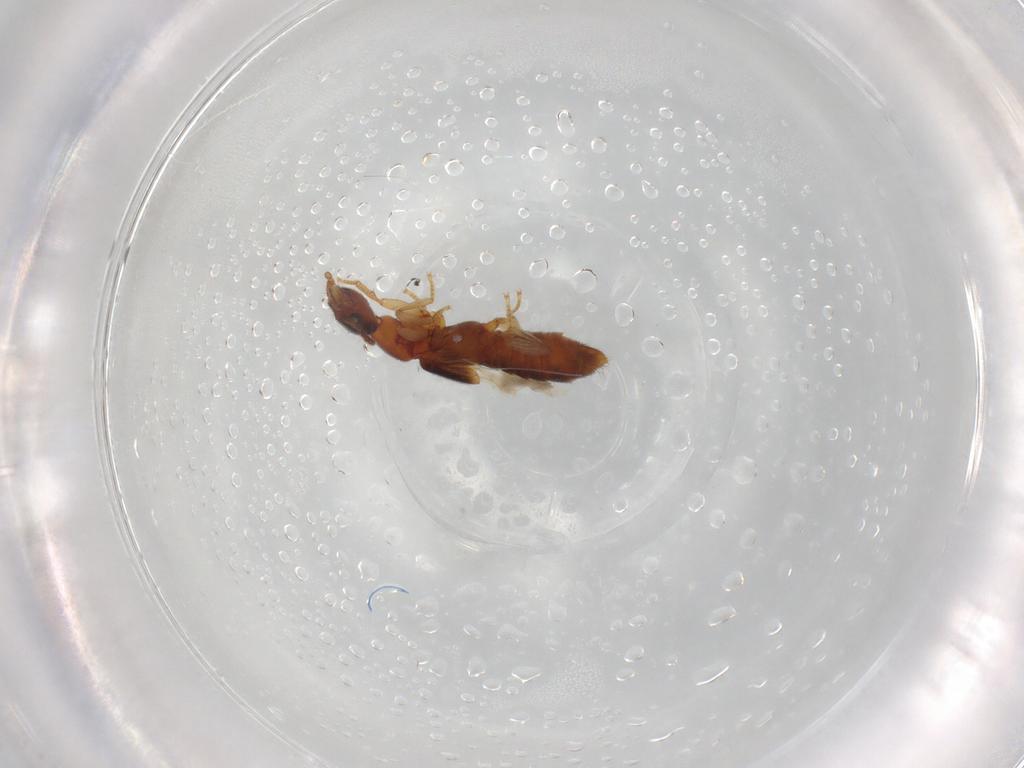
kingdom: Animalia
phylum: Arthropoda
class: Insecta
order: Coleoptera
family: Staphylinidae
